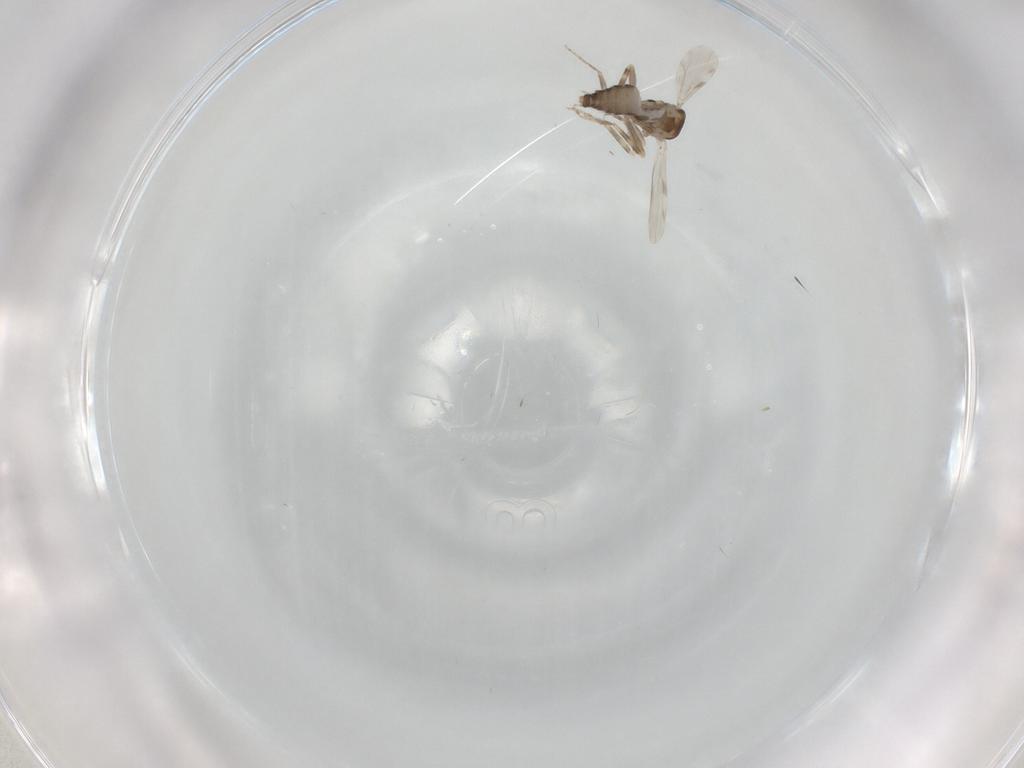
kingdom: Animalia
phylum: Arthropoda
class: Insecta
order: Diptera
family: Ceratopogonidae
